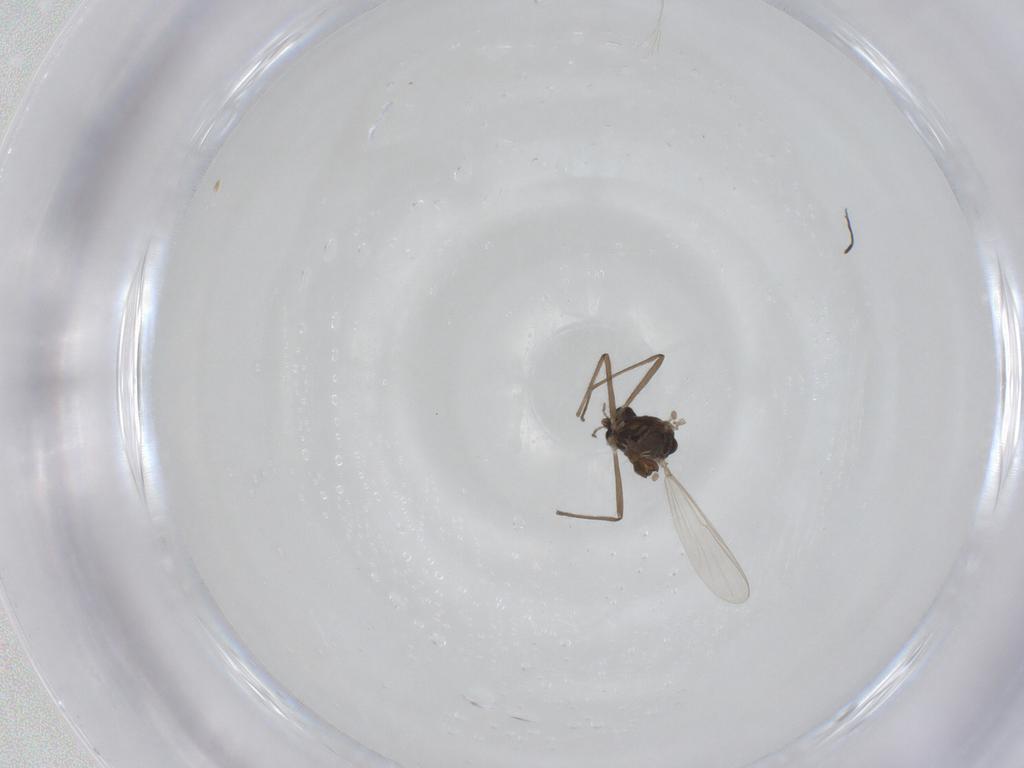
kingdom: Animalia
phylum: Arthropoda
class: Insecta
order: Diptera
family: Chironomidae
